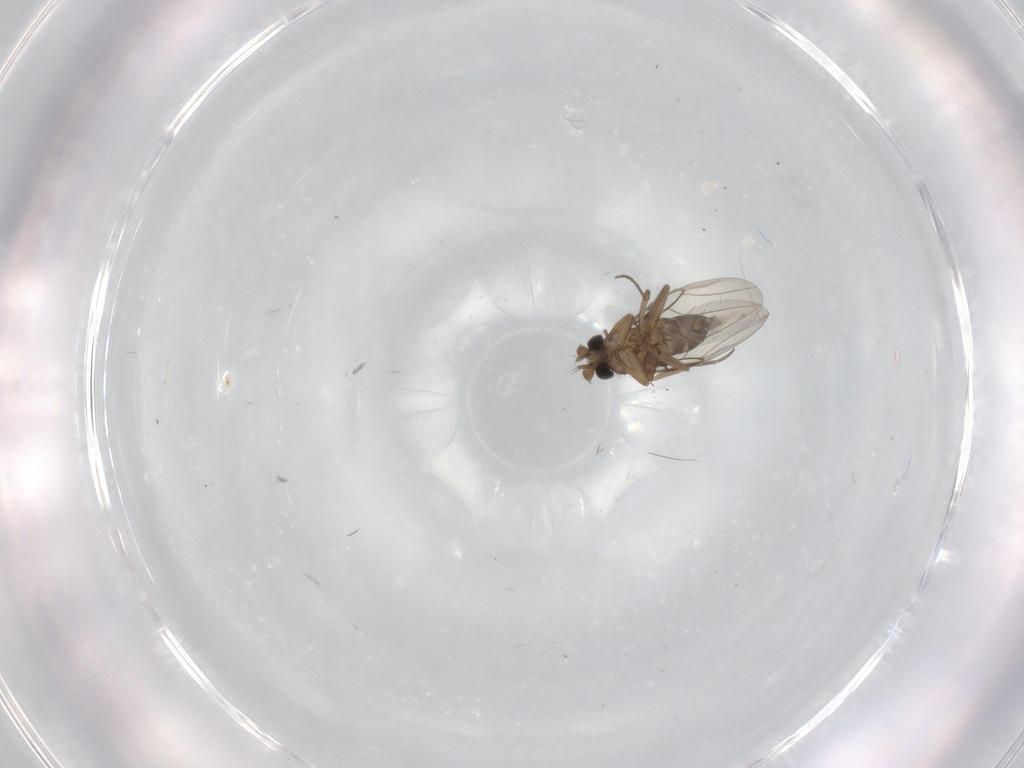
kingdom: Animalia
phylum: Arthropoda
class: Insecta
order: Diptera
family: Phoridae
